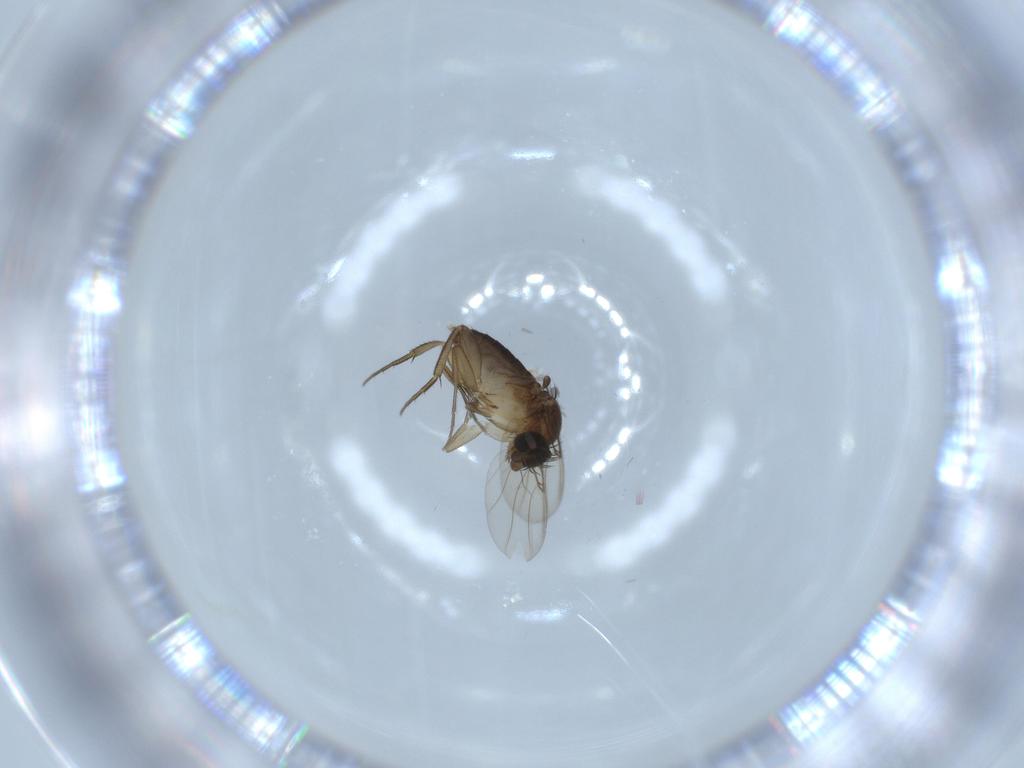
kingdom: Animalia
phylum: Arthropoda
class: Insecta
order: Diptera
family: Phoridae
